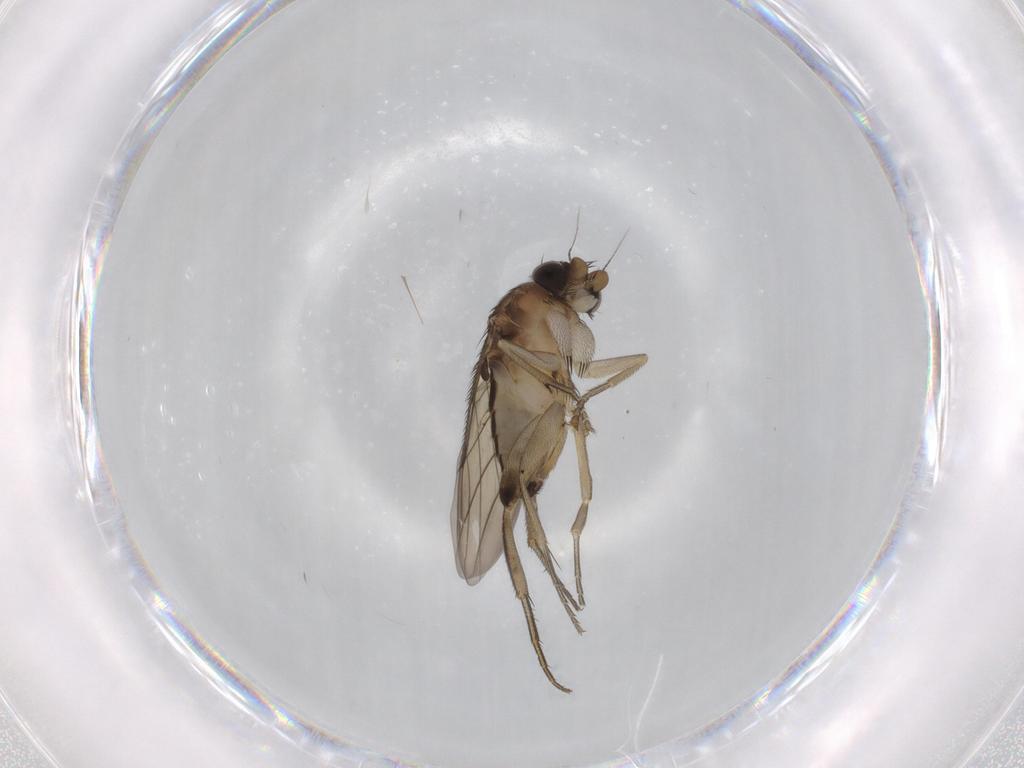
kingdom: Animalia
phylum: Arthropoda
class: Insecta
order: Diptera
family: Phoridae
